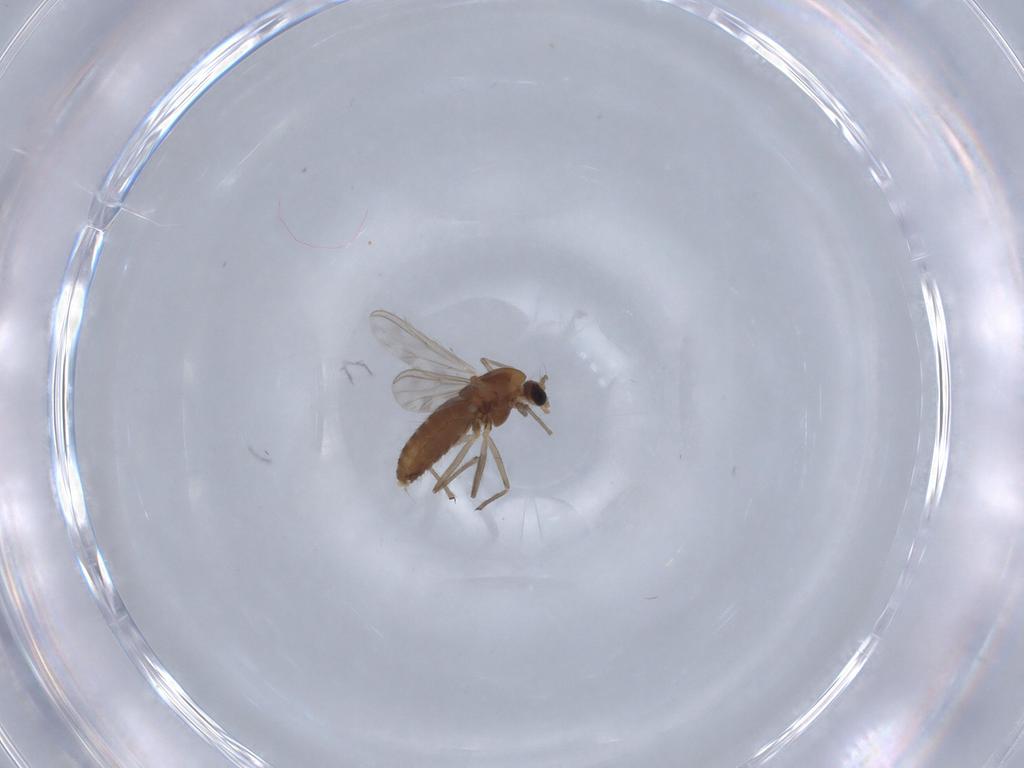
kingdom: Animalia
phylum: Arthropoda
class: Insecta
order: Diptera
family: Chironomidae
